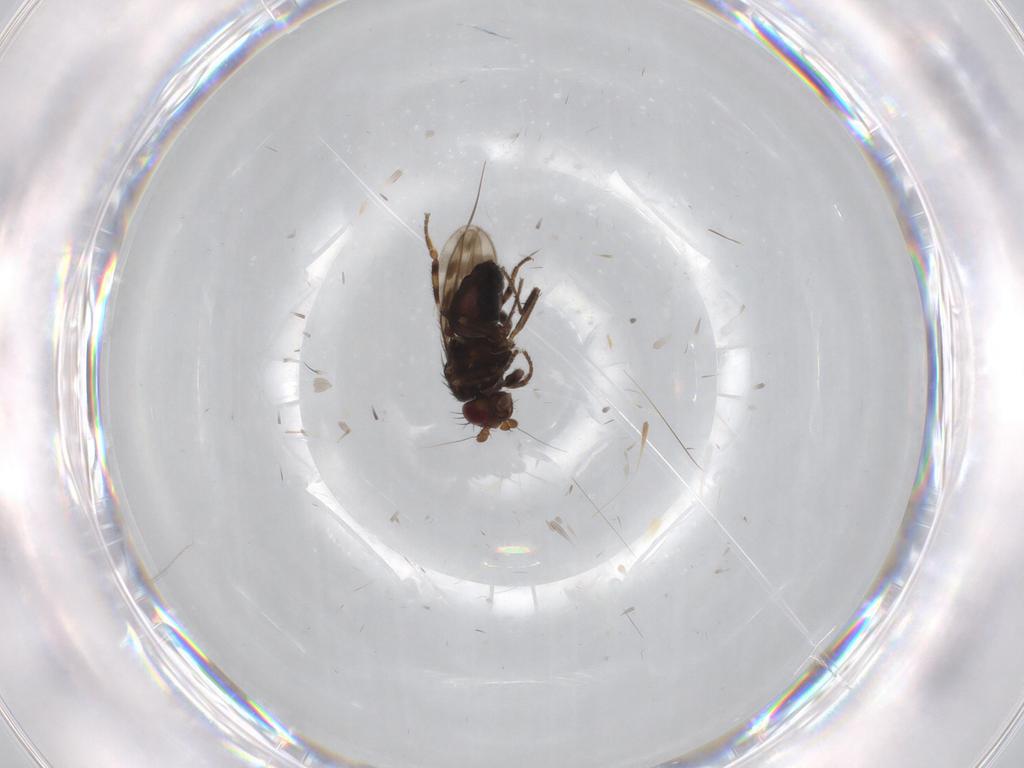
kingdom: Animalia
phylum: Arthropoda
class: Insecta
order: Diptera
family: Sphaeroceridae
